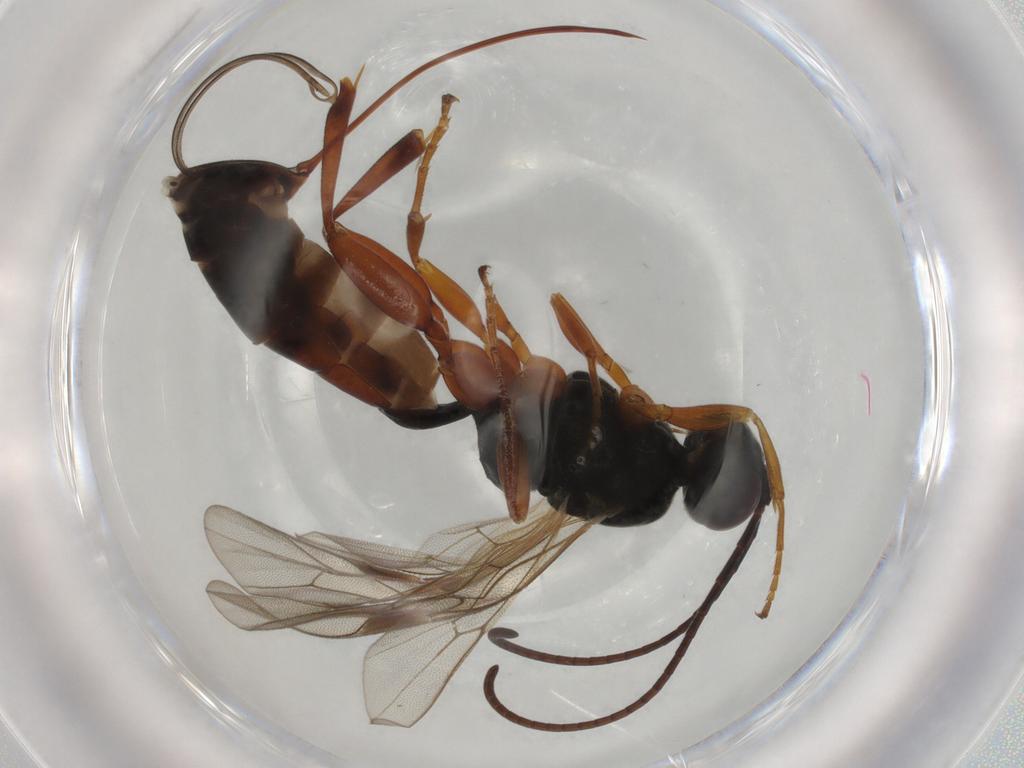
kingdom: Animalia
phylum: Arthropoda
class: Insecta
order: Hymenoptera
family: Ichneumonidae
